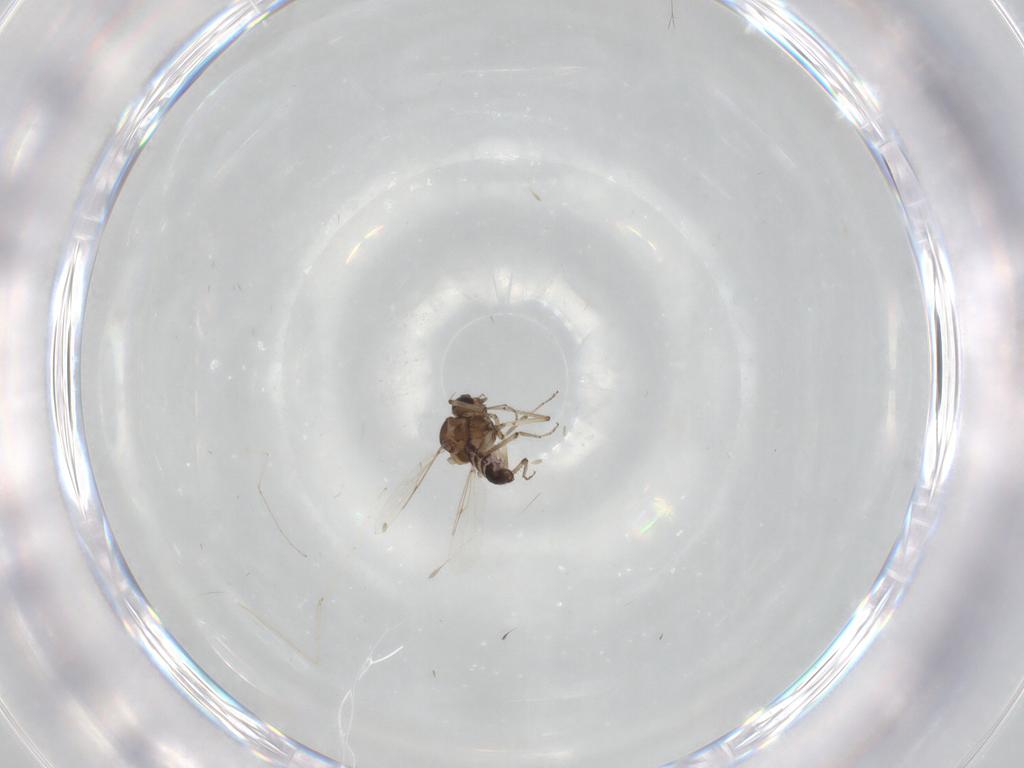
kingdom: Animalia
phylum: Arthropoda
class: Insecta
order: Diptera
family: Ceratopogonidae
